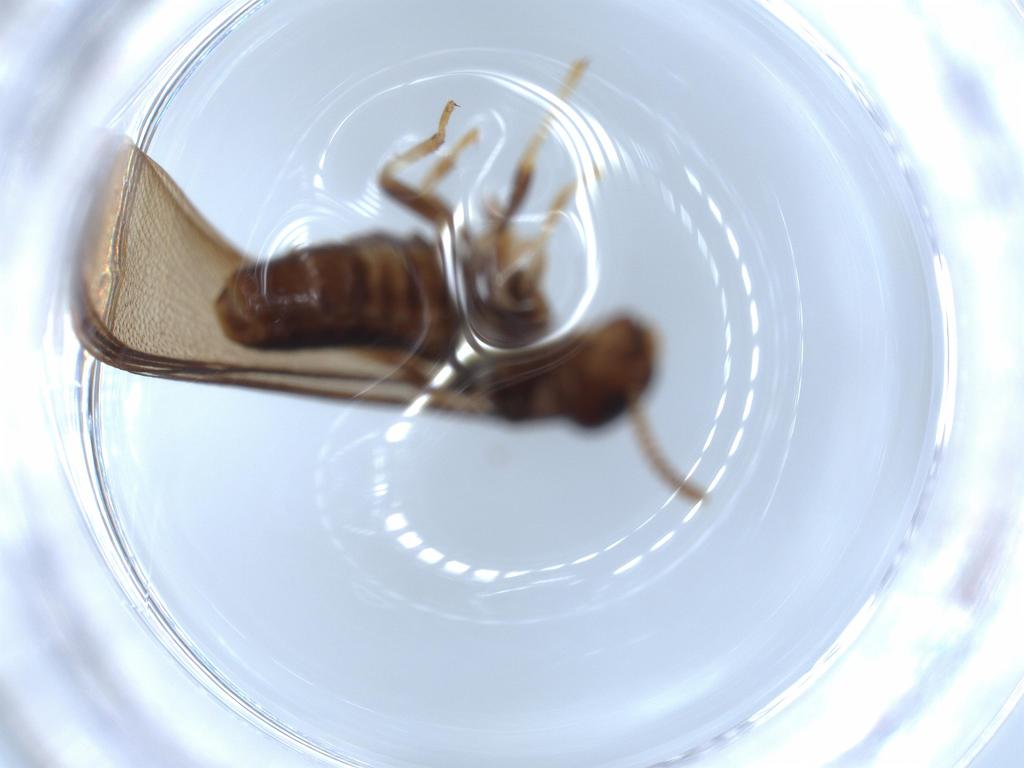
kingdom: Animalia
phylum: Arthropoda
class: Insecta
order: Blattodea
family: Kalotermitidae
